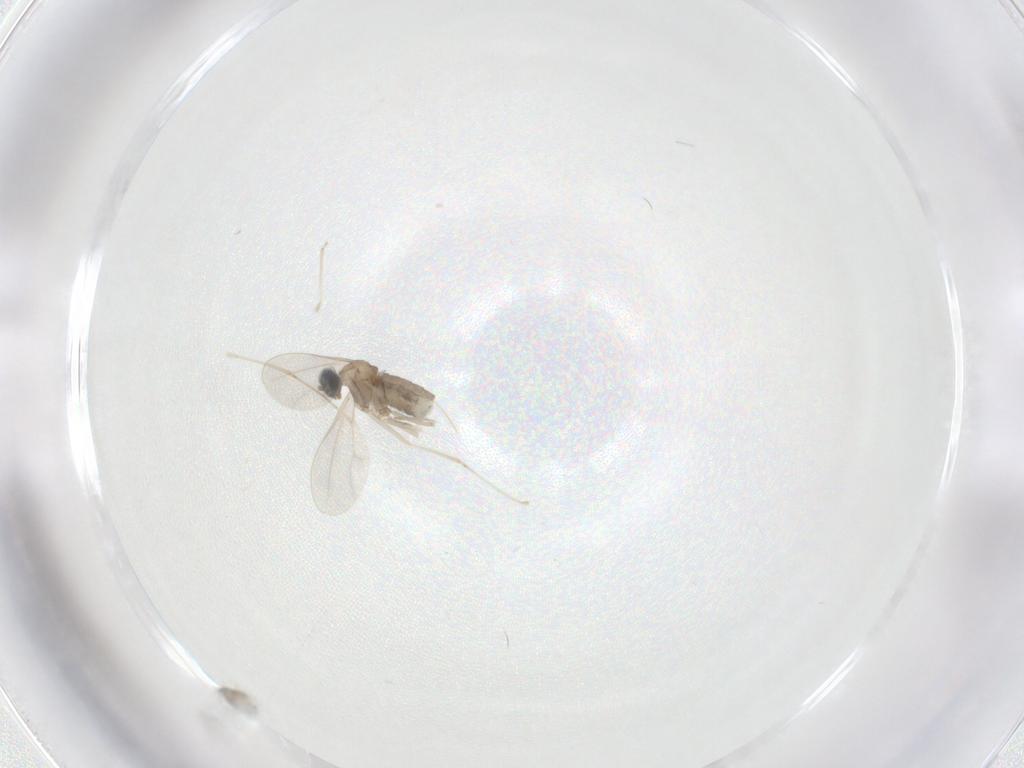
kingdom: Animalia
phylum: Arthropoda
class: Insecta
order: Diptera
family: Cecidomyiidae
